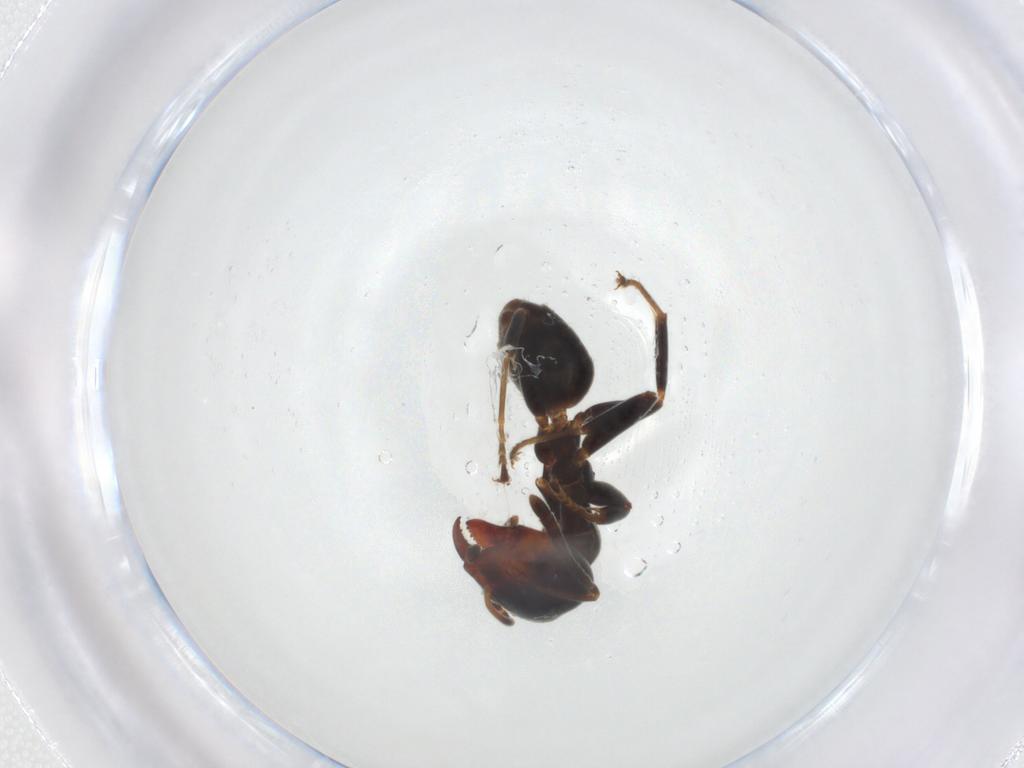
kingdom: Animalia
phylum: Arthropoda
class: Insecta
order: Hymenoptera
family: Formicidae
